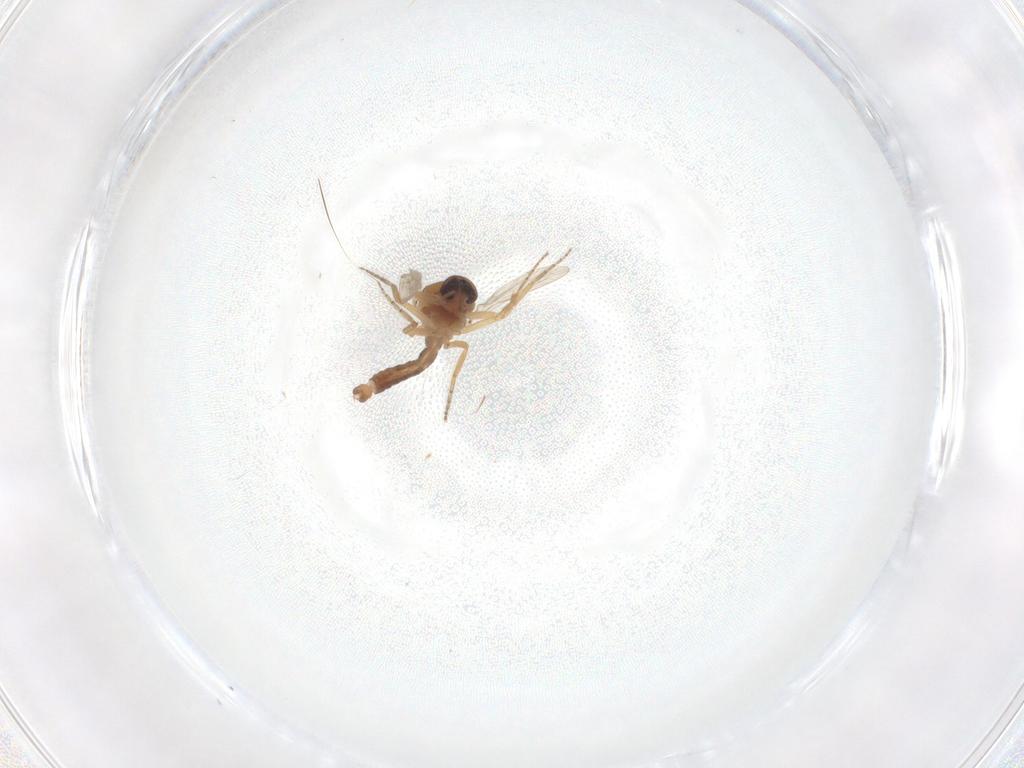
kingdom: Animalia
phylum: Arthropoda
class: Insecta
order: Diptera
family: Ceratopogonidae
